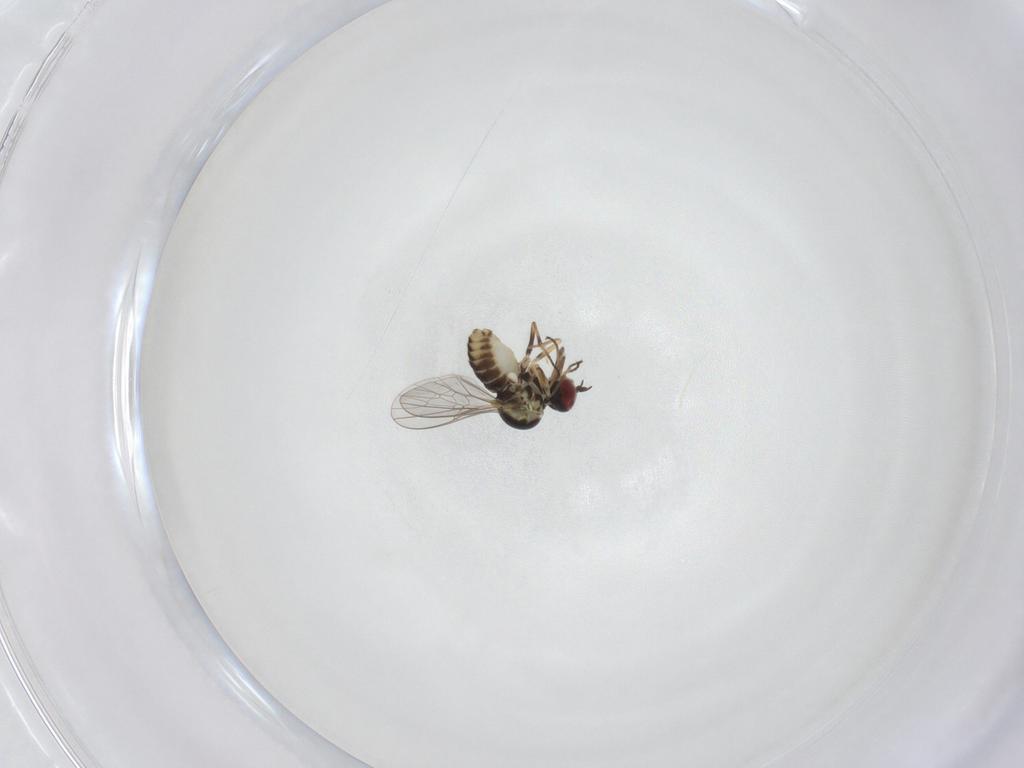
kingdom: Animalia
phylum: Arthropoda
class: Insecta
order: Diptera
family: Mythicomyiidae
